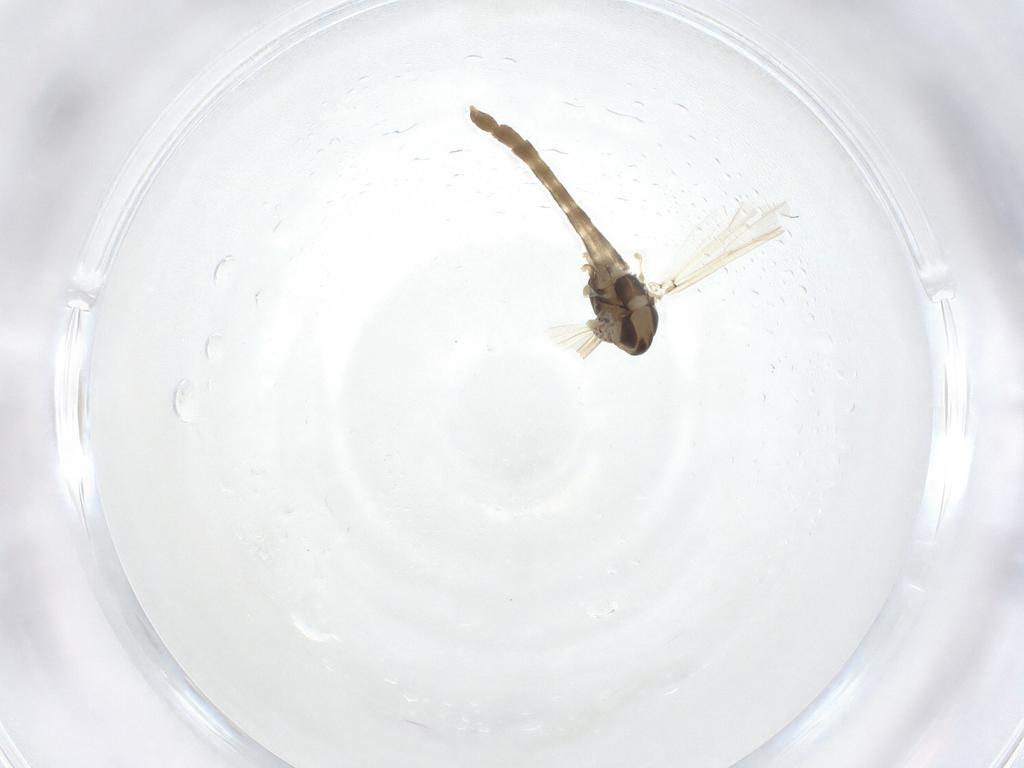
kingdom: Animalia
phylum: Arthropoda
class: Insecta
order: Diptera
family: Chironomidae
